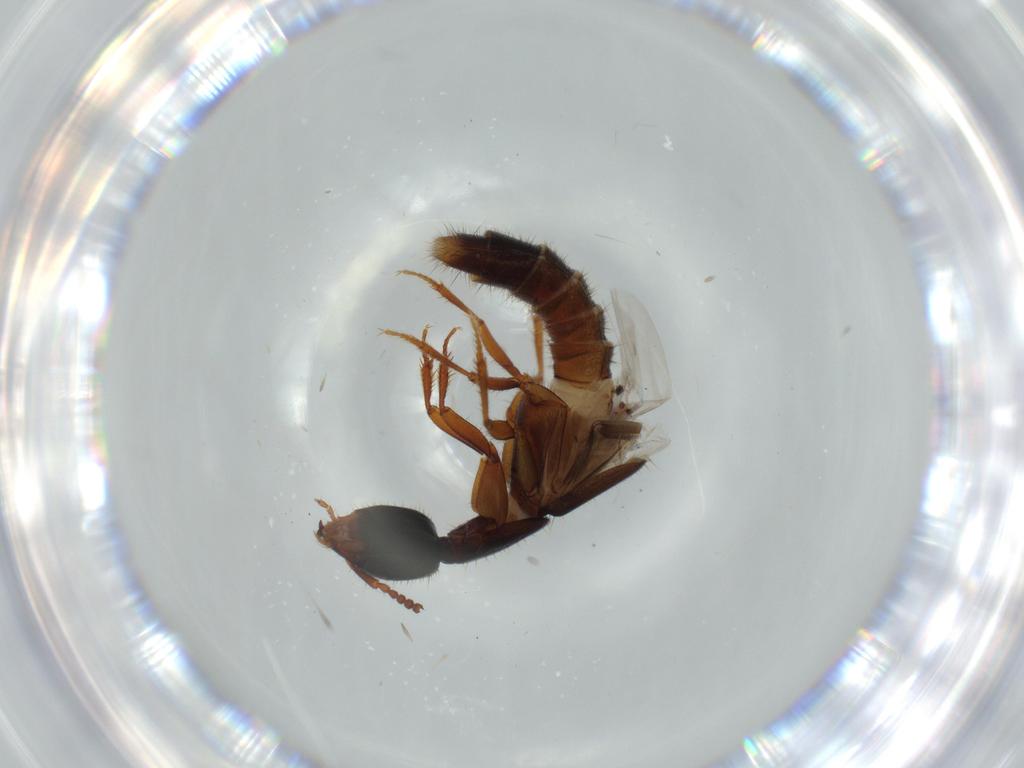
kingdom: Animalia
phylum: Arthropoda
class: Insecta
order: Coleoptera
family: Staphylinidae
